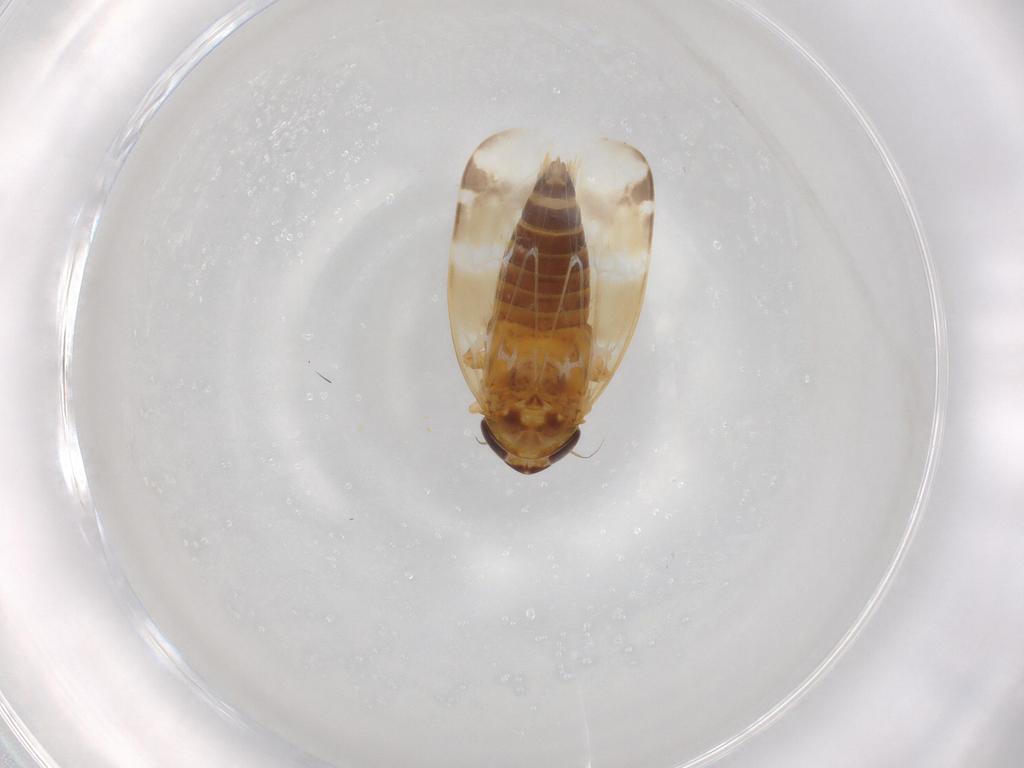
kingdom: Animalia
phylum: Arthropoda
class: Insecta
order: Hemiptera
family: Cicadellidae
